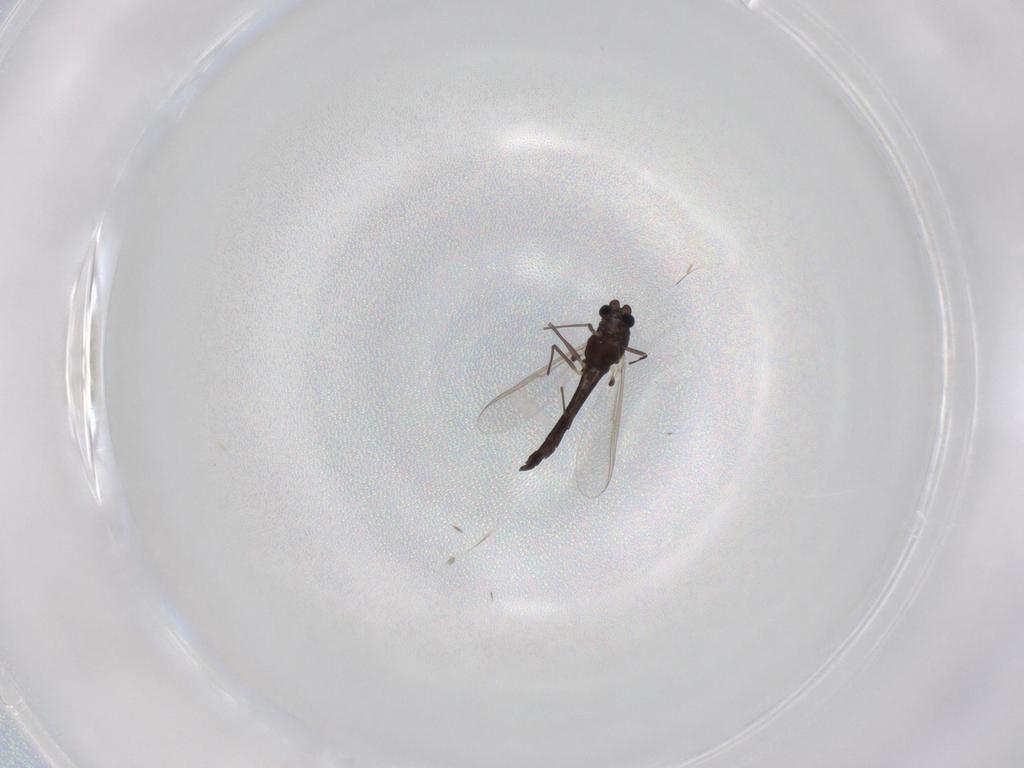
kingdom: Animalia
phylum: Arthropoda
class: Insecta
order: Diptera
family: Chironomidae
